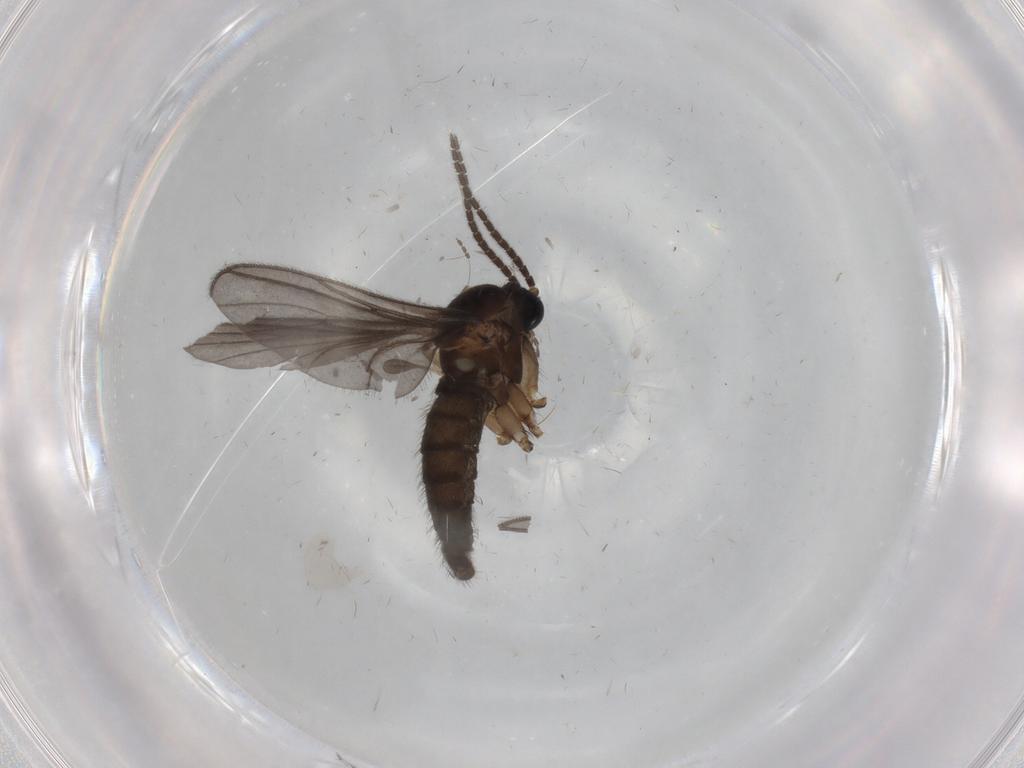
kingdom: Animalia
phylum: Arthropoda
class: Insecta
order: Diptera
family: Sciaridae
